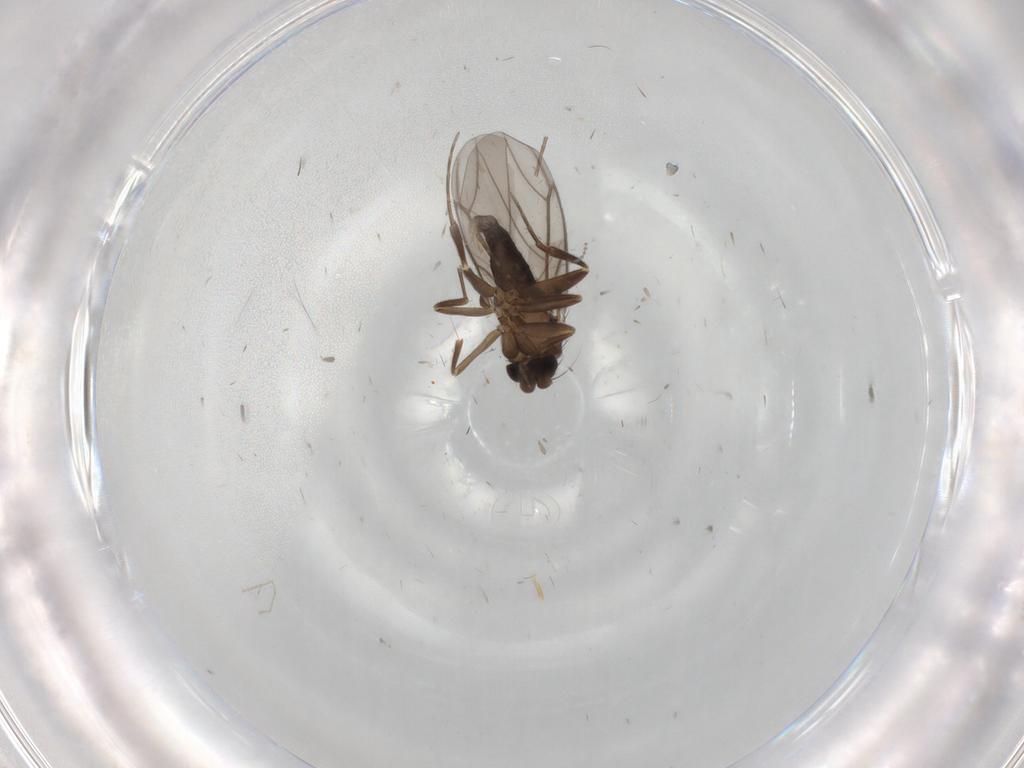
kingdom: Animalia
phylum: Arthropoda
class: Insecta
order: Diptera
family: Cecidomyiidae
